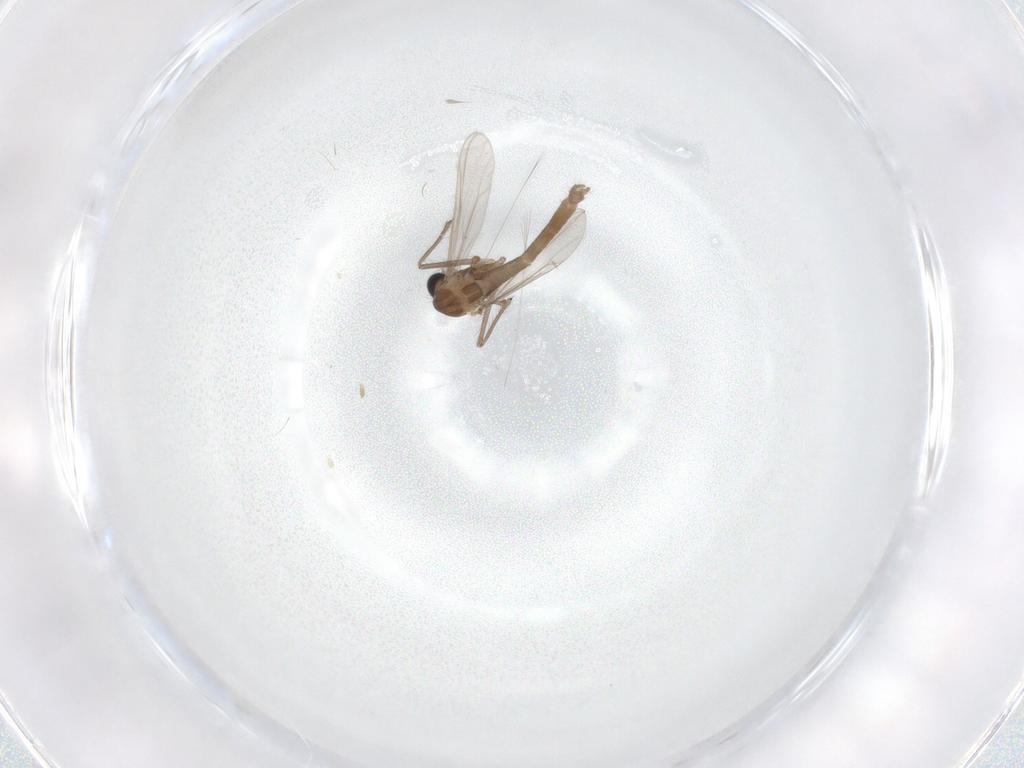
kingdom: Animalia
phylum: Arthropoda
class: Insecta
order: Diptera
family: Chironomidae
